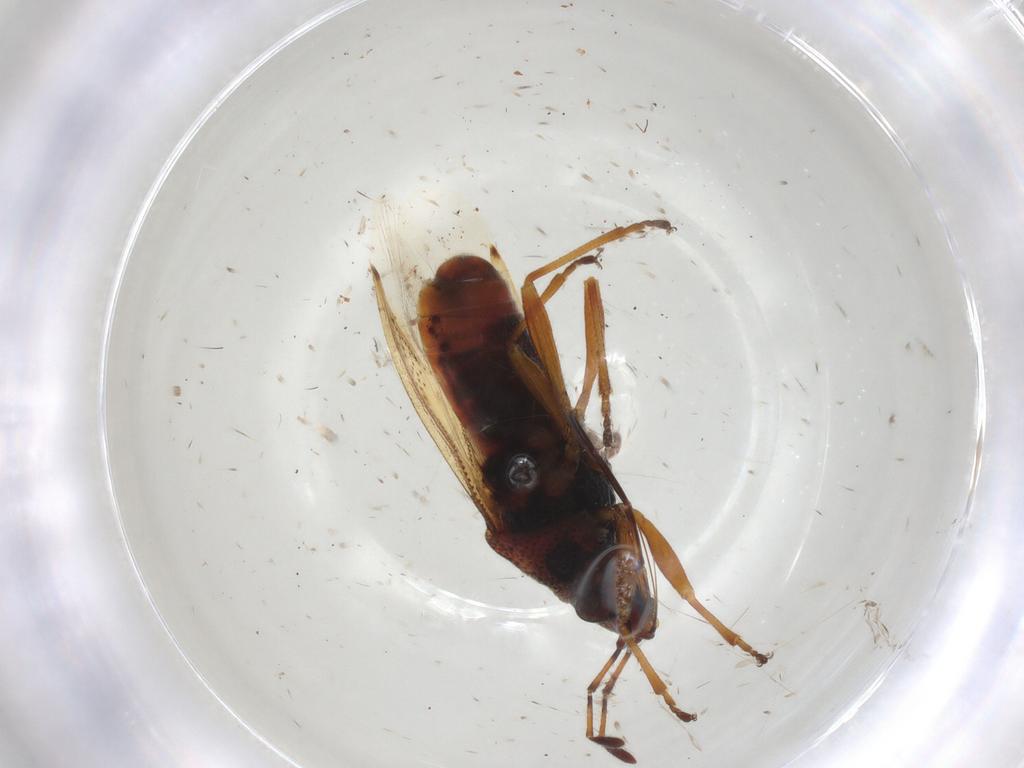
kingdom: Animalia
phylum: Arthropoda
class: Insecta
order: Hemiptera
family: Lygaeidae
